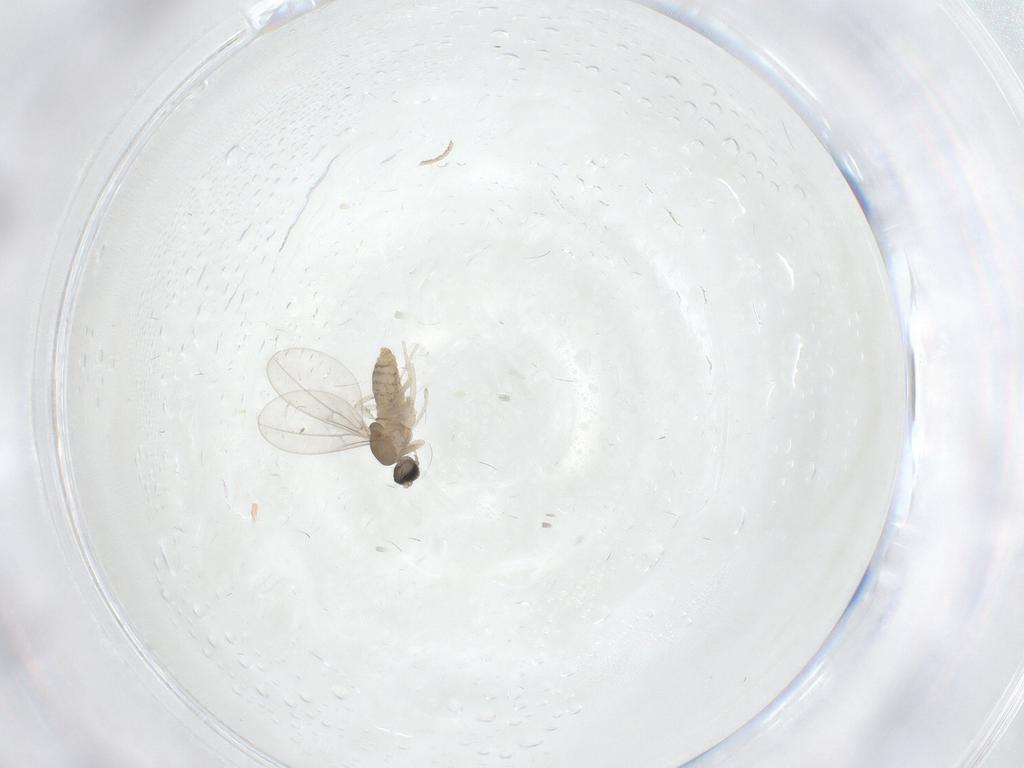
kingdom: Animalia
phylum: Arthropoda
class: Insecta
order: Diptera
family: Cecidomyiidae
